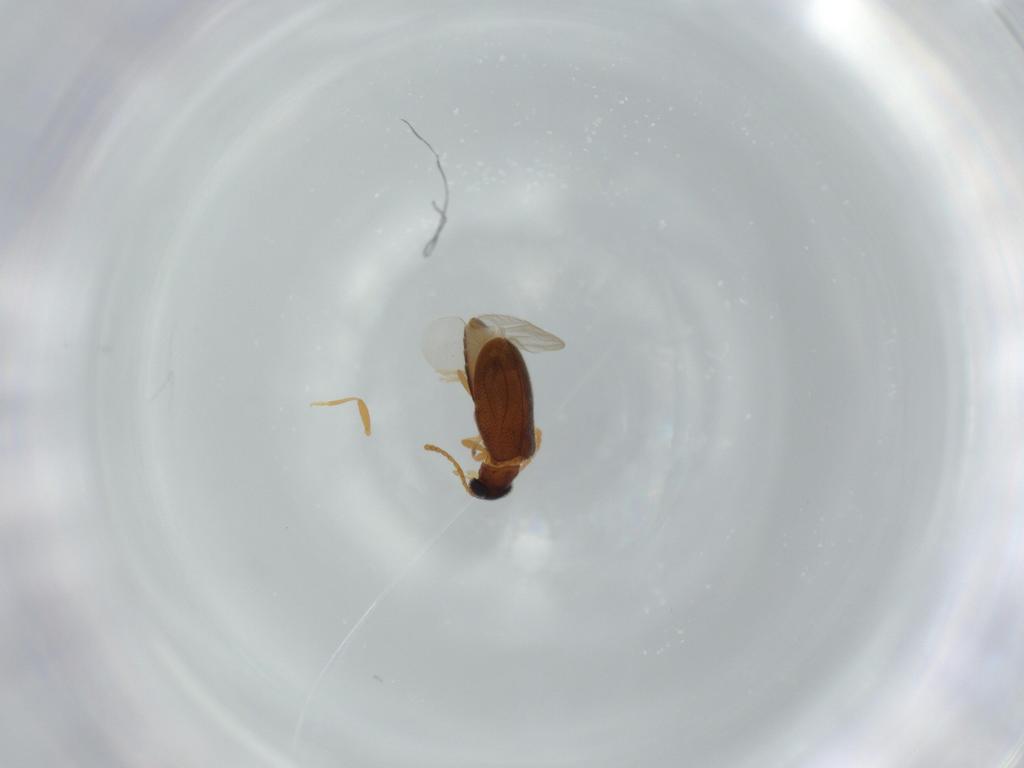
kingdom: Animalia
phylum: Arthropoda
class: Insecta
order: Coleoptera
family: Aderidae
